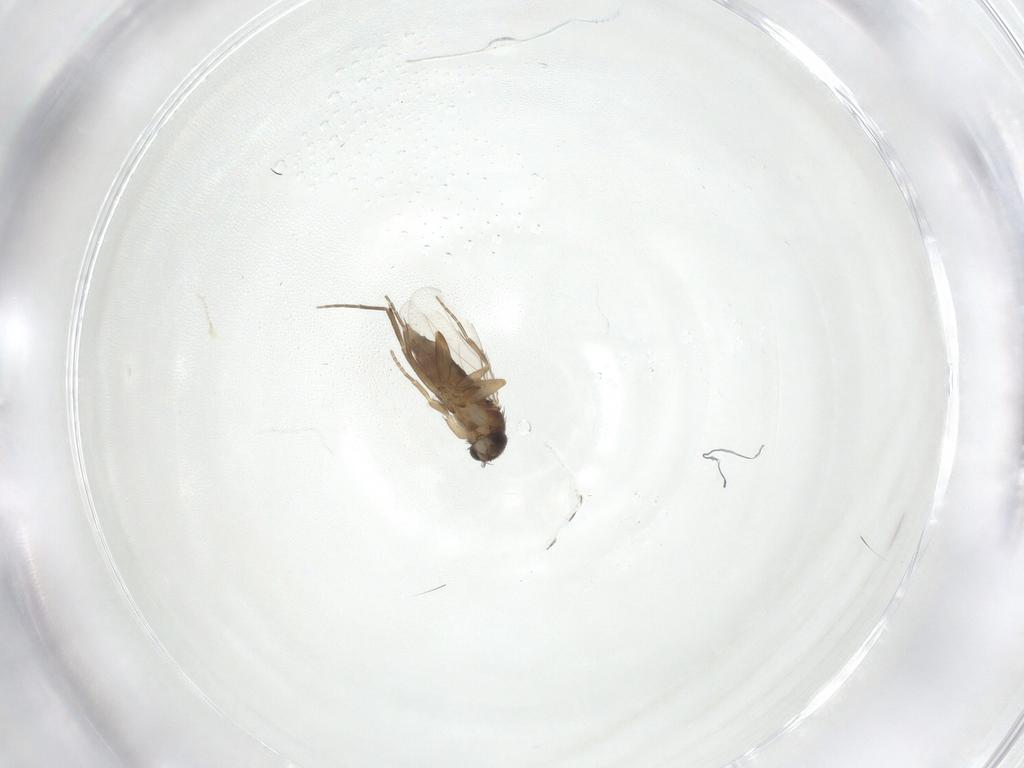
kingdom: Animalia
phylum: Arthropoda
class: Insecta
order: Diptera
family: Phoridae
